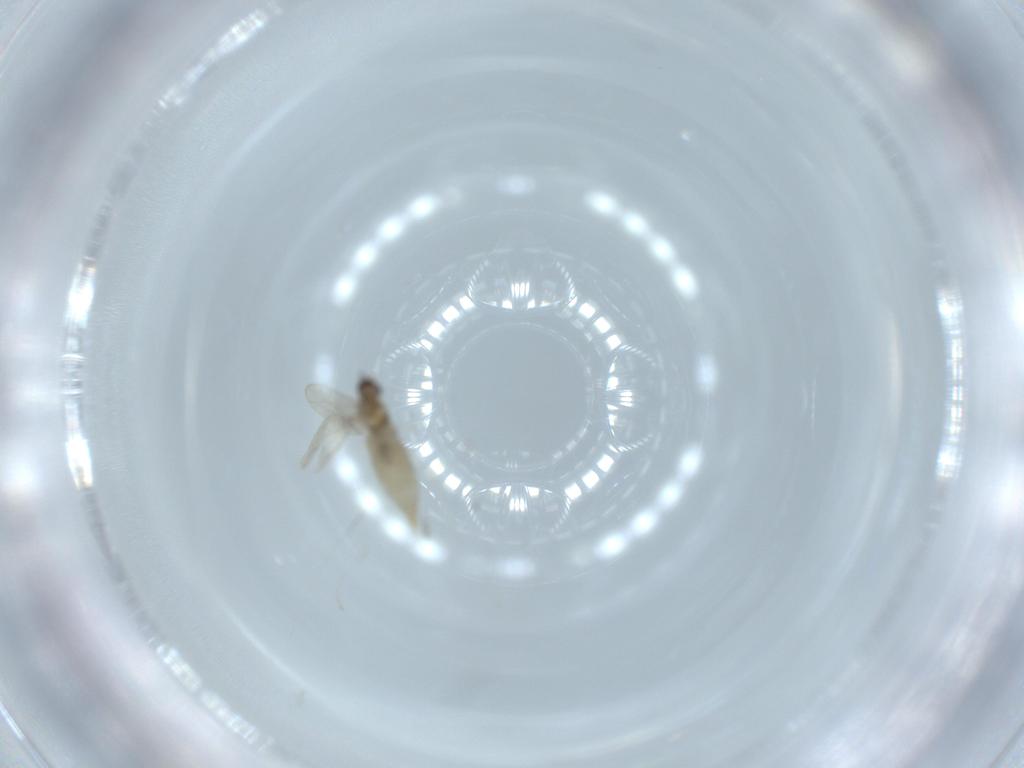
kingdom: Animalia
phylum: Arthropoda
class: Insecta
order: Diptera
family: Cecidomyiidae
